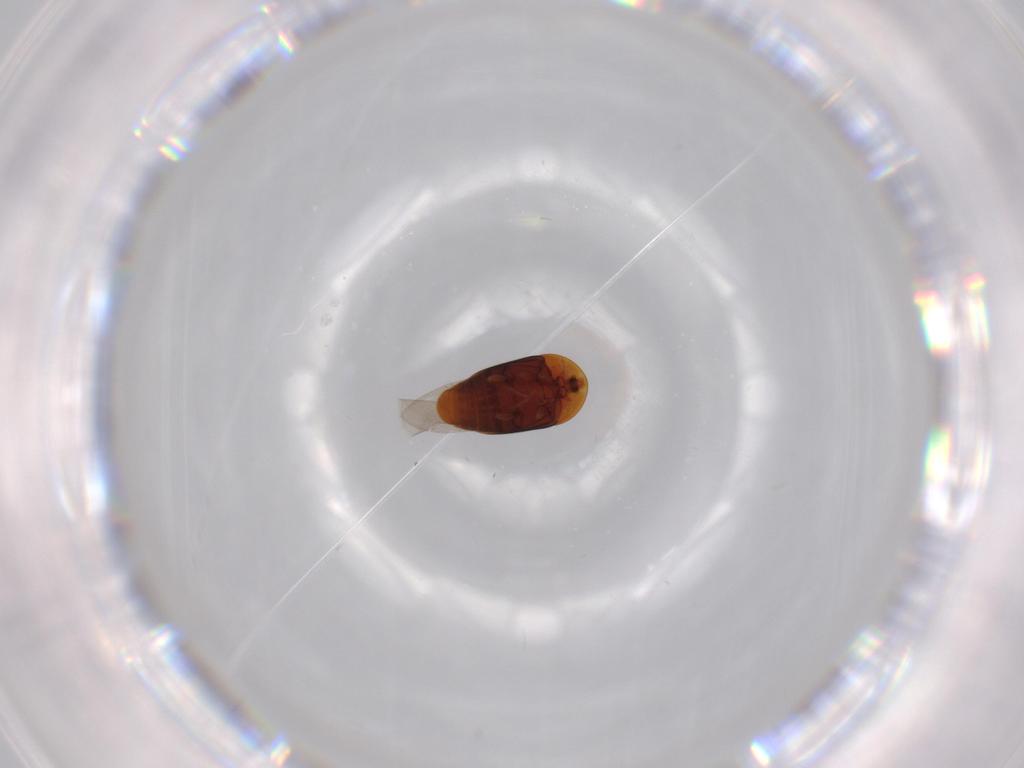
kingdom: Animalia
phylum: Arthropoda
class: Insecta
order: Coleoptera
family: Corylophidae
